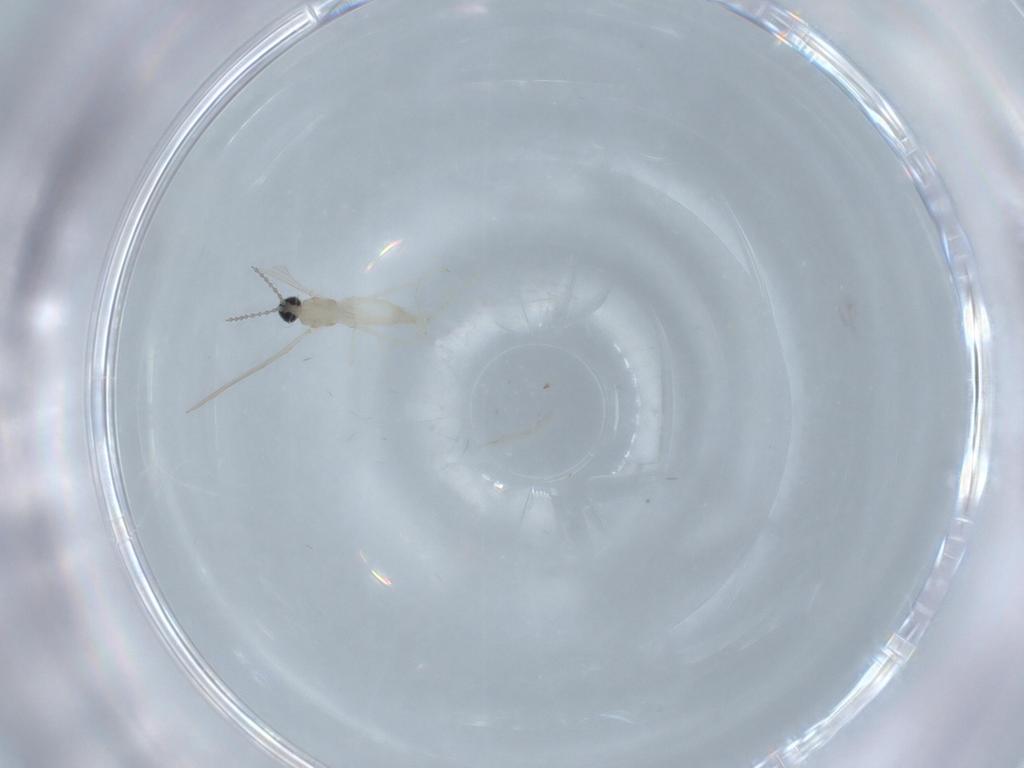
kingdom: Animalia
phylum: Arthropoda
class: Insecta
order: Diptera
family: Cecidomyiidae
